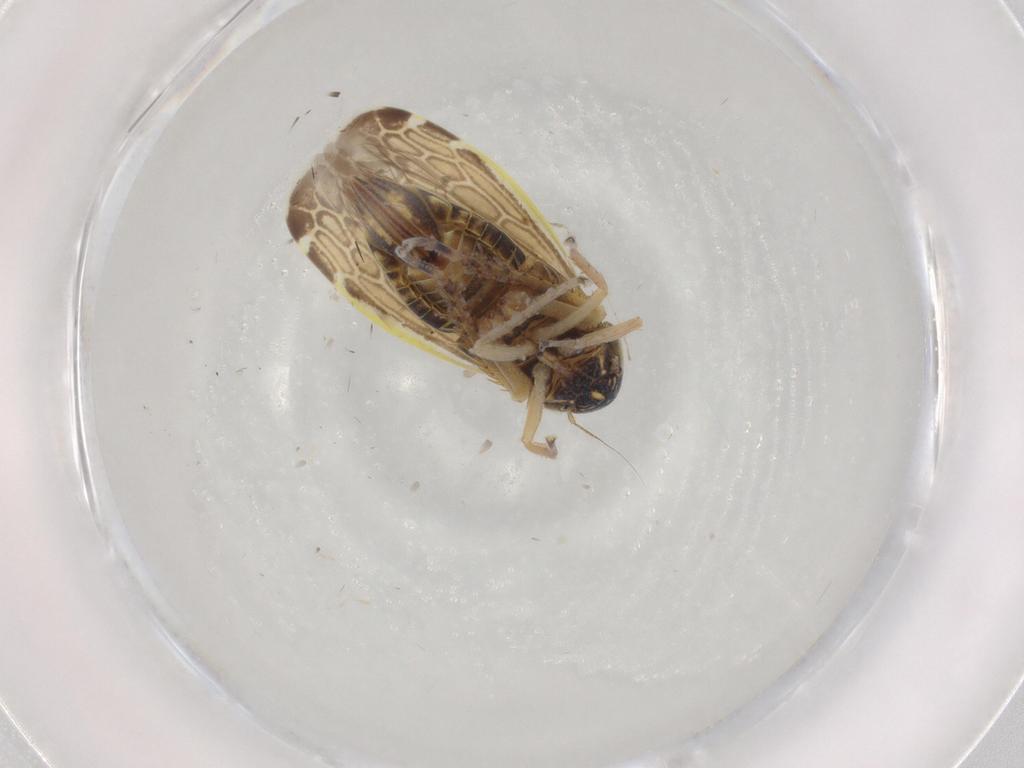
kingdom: Animalia
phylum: Arthropoda
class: Insecta
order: Hemiptera
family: Cicadellidae
